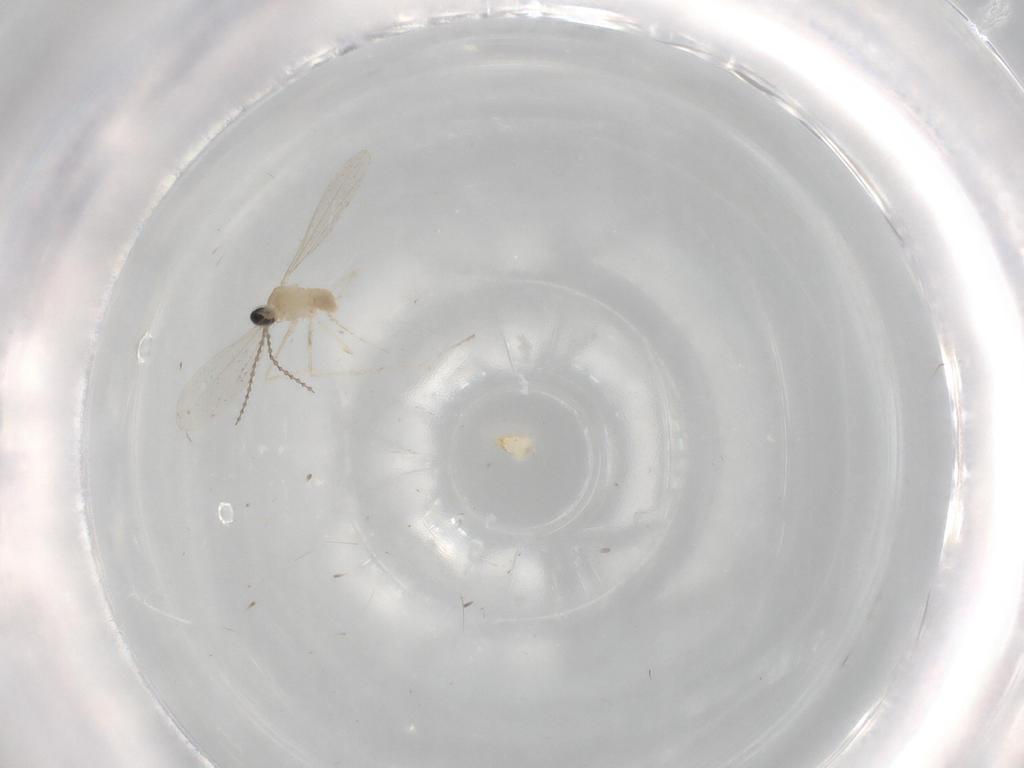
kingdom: Animalia
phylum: Arthropoda
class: Insecta
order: Diptera
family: Cecidomyiidae
